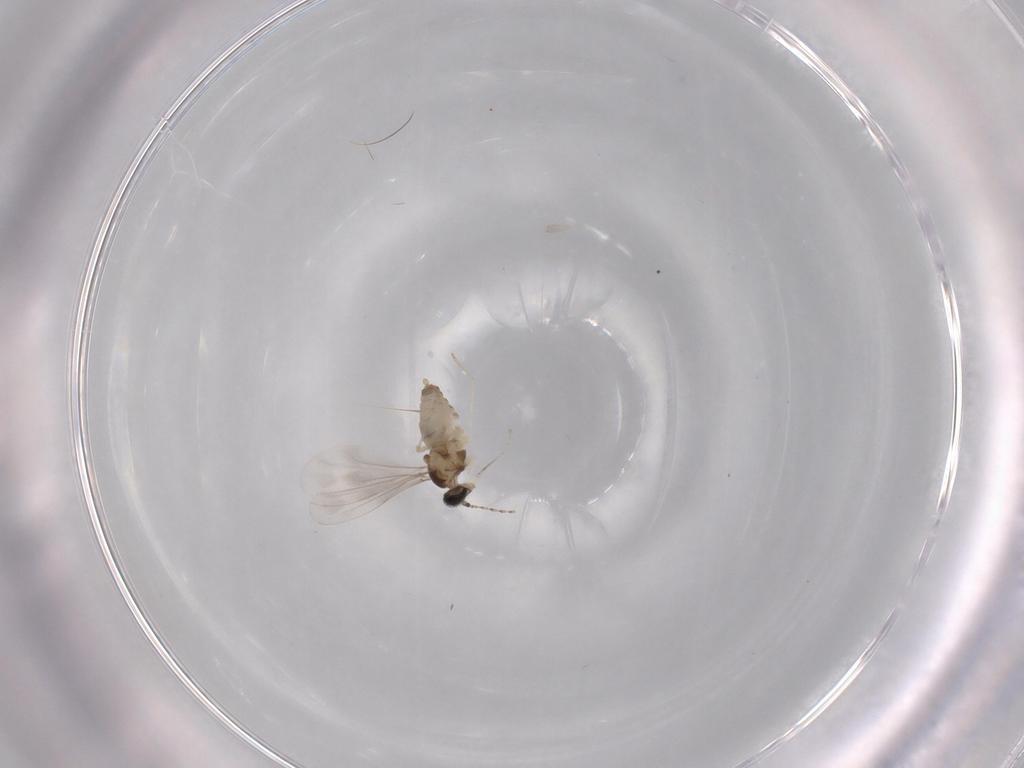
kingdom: Animalia
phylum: Arthropoda
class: Insecta
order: Diptera
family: Cecidomyiidae
